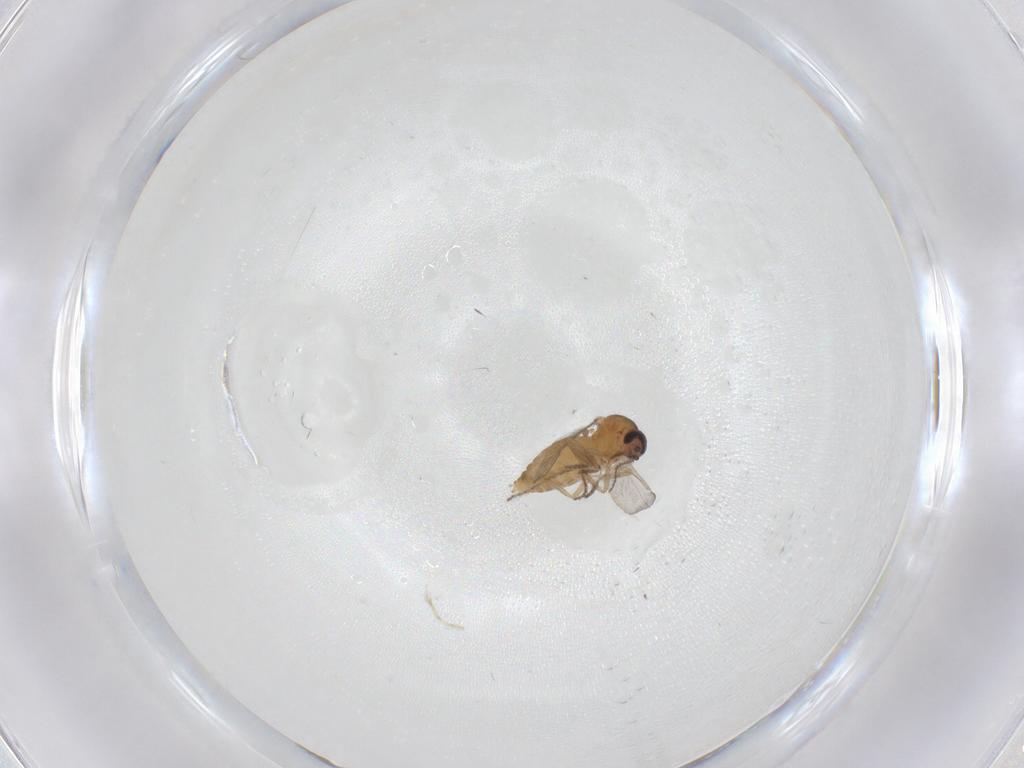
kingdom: Animalia
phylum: Arthropoda
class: Insecta
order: Diptera
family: Ceratopogonidae
